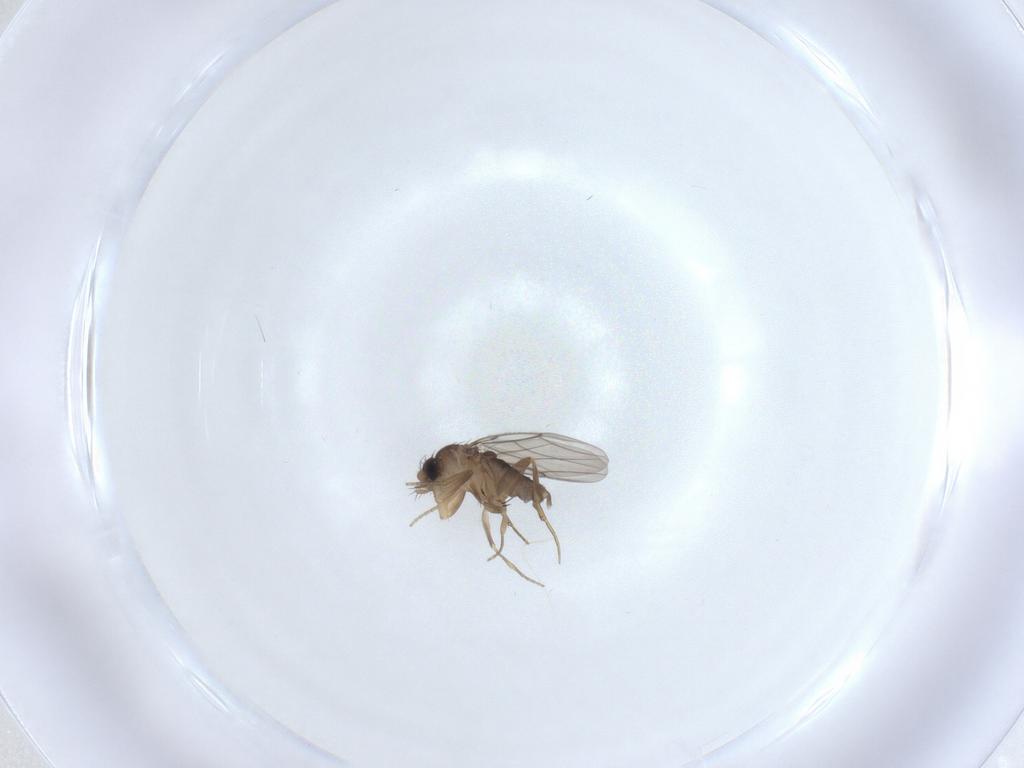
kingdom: Animalia
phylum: Arthropoda
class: Insecta
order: Diptera
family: Phoridae
